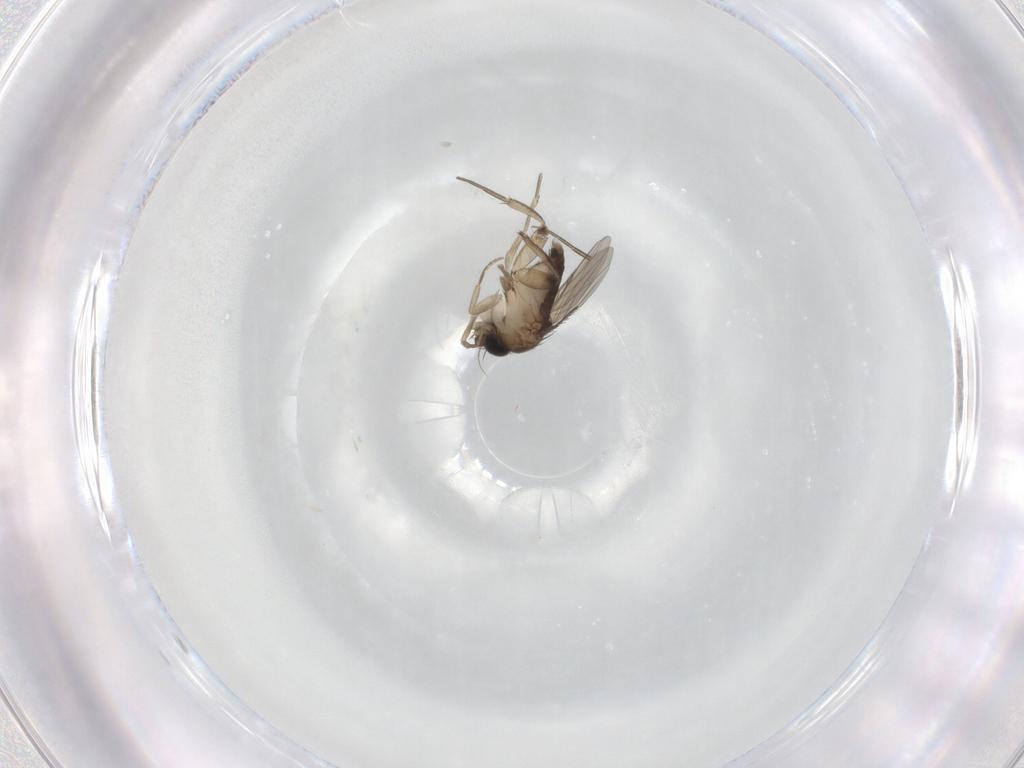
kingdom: Animalia
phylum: Arthropoda
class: Insecta
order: Diptera
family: Phoridae
